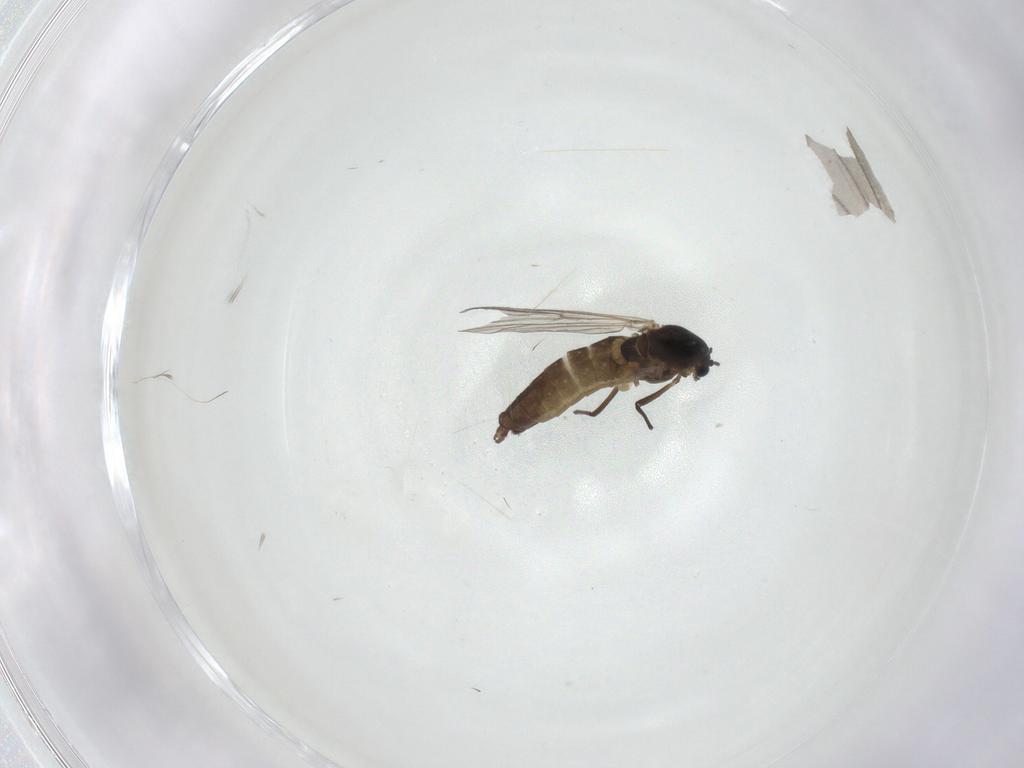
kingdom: Animalia
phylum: Arthropoda
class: Insecta
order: Diptera
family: Chironomidae
